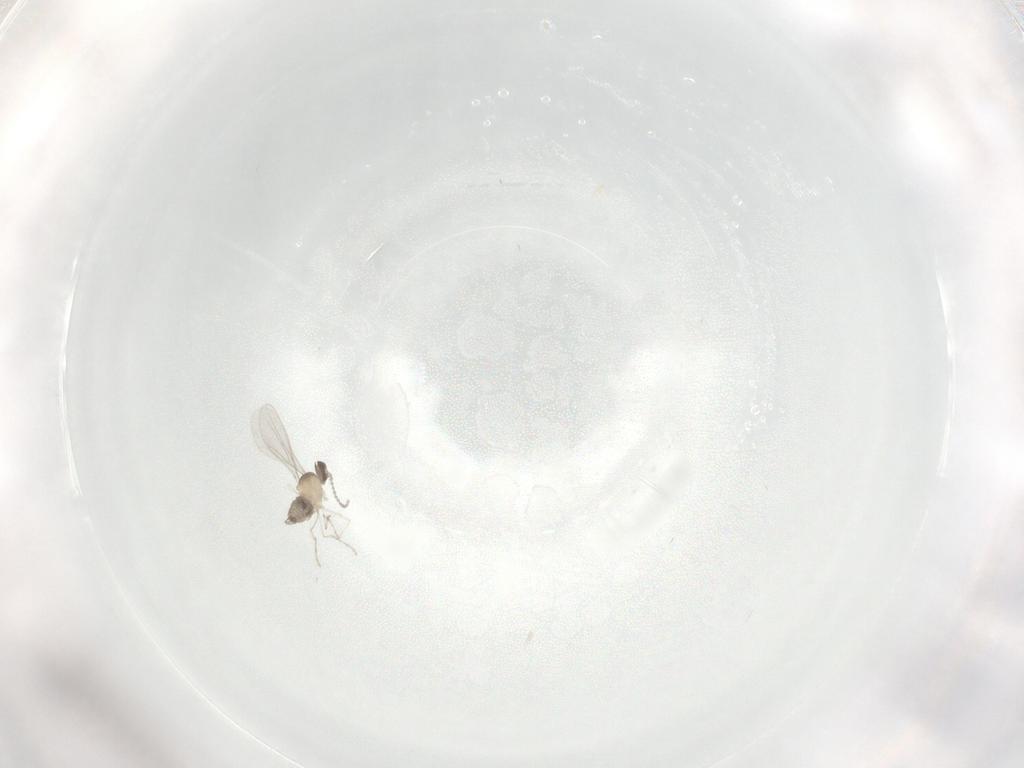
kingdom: Animalia
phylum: Arthropoda
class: Insecta
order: Diptera
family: Cecidomyiidae
